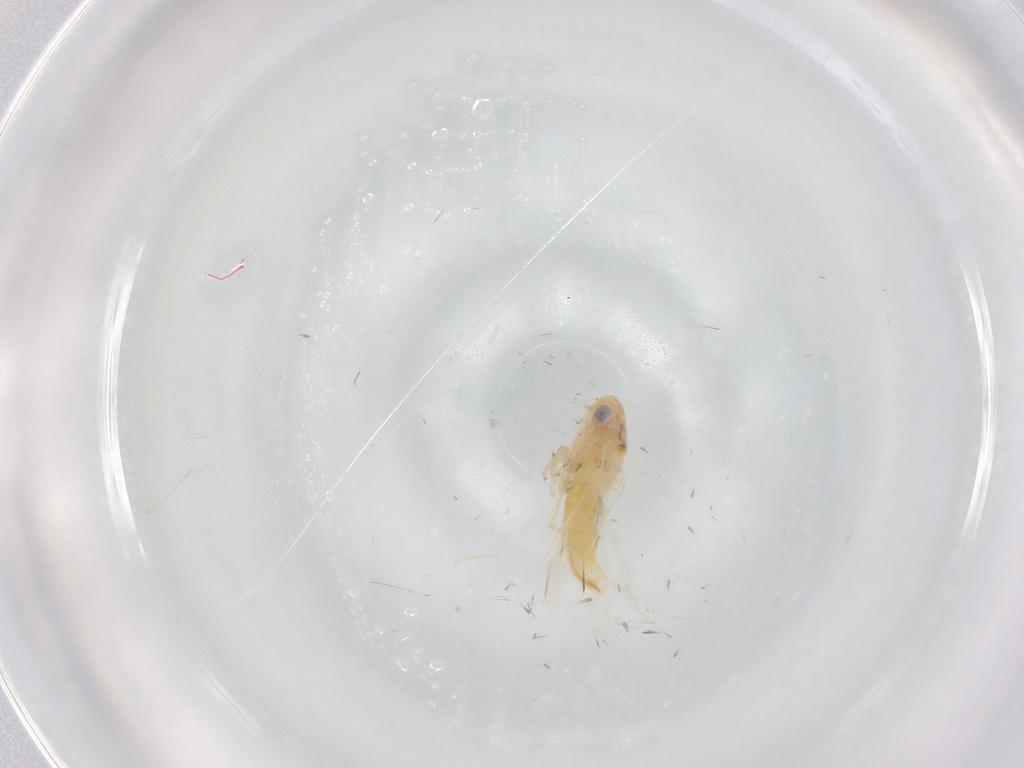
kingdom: Animalia
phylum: Arthropoda
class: Insecta
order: Hemiptera
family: Cicadellidae
